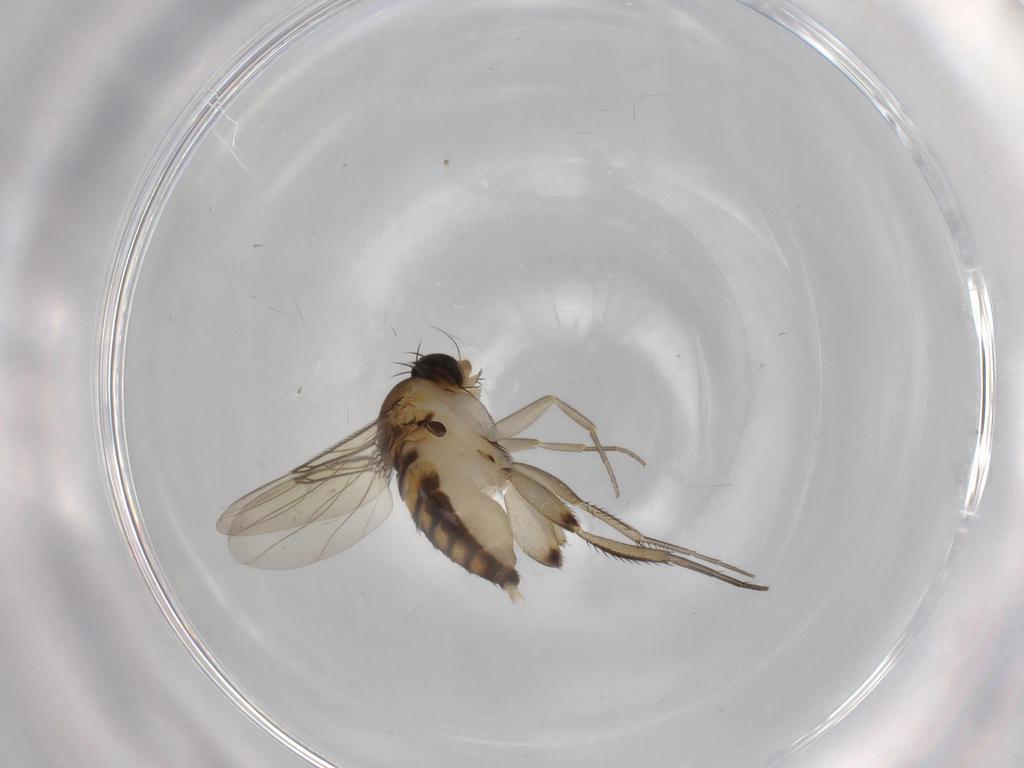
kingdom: Animalia
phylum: Arthropoda
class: Insecta
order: Diptera
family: Phoridae
